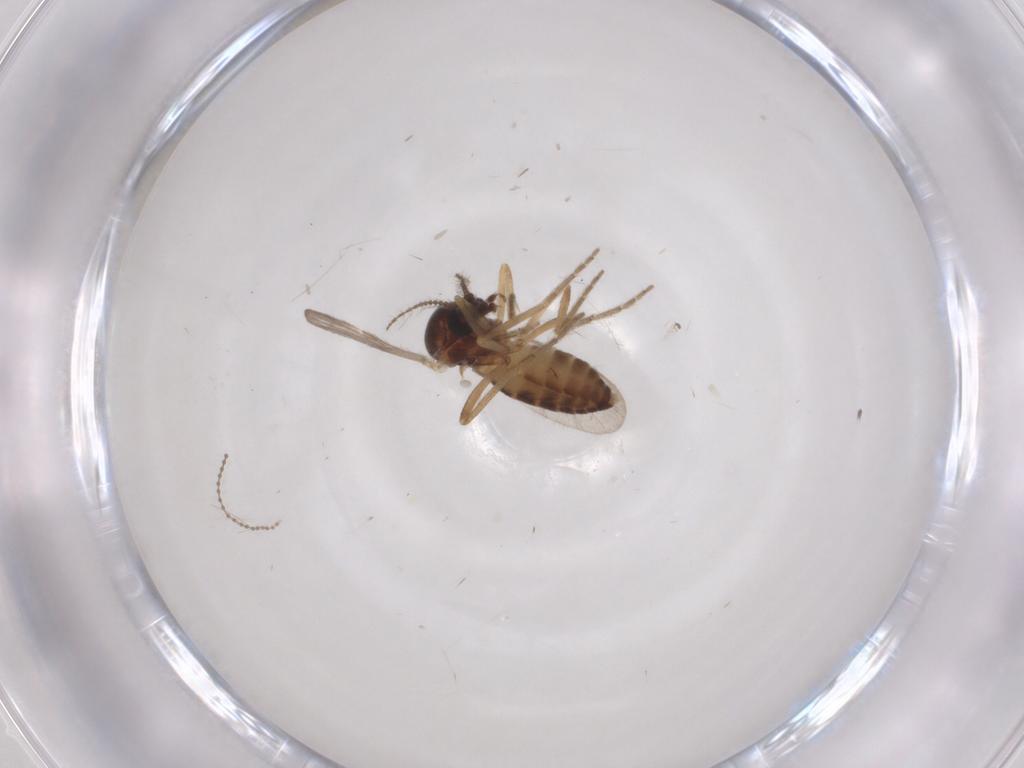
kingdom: Animalia
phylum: Arthropoda
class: Insecta
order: Diptera
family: Ceratopogonidae
